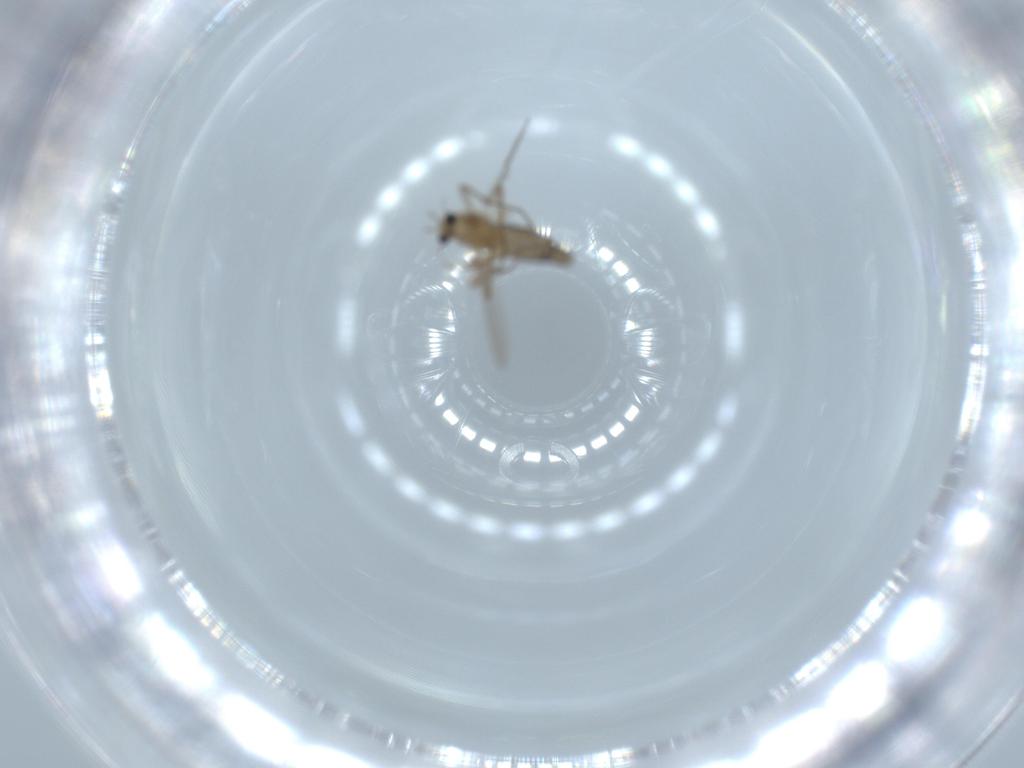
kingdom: Animalia
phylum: Arthropoda
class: Insecta
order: Diptera
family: Chironomidae
